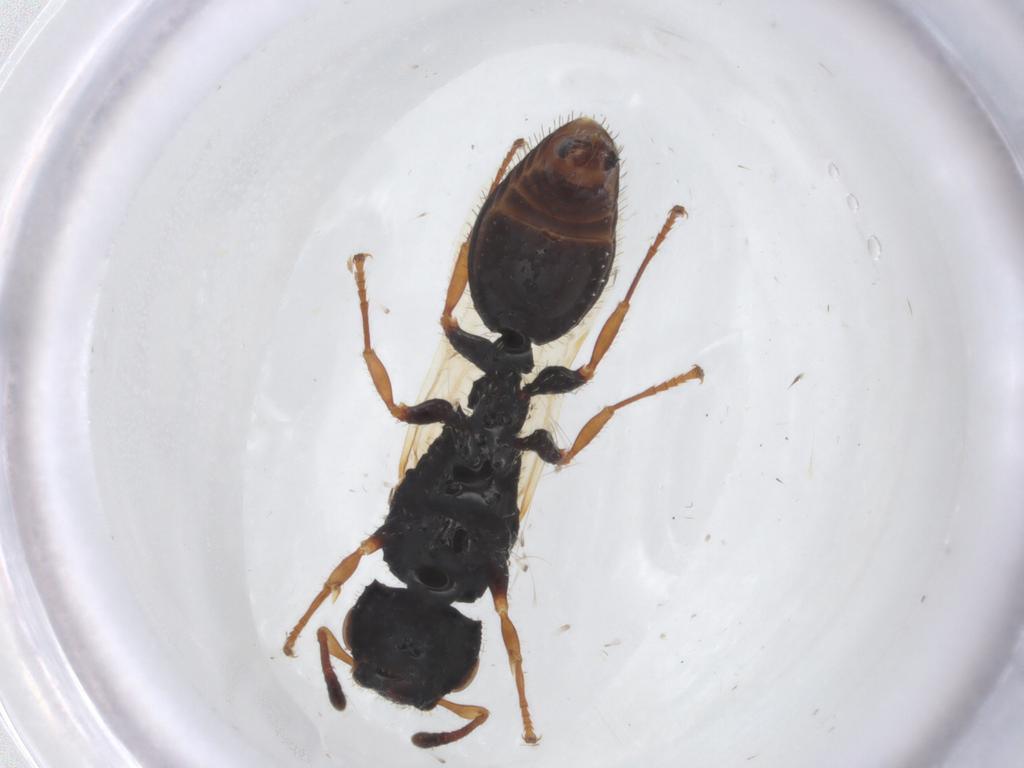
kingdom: Animalia
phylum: Arthropoda
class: Insecta
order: Hymenoptera
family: Formicidae
